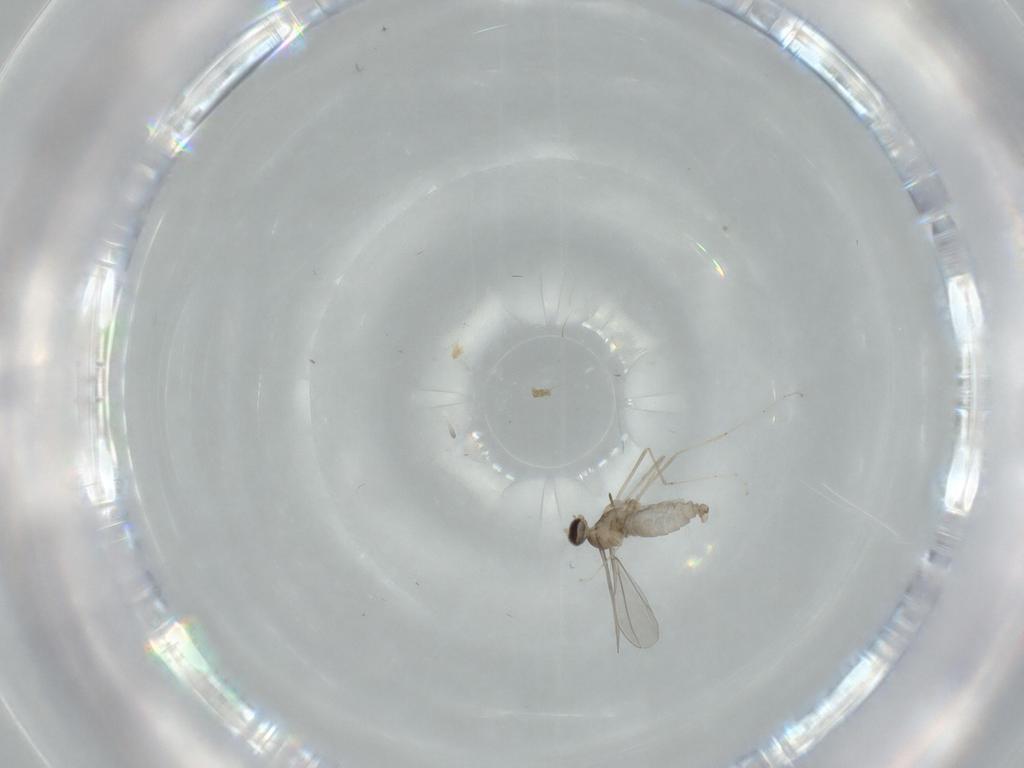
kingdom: Animalia
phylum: Arthropoda
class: Insecta
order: Diptera
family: Cecidomyiidae
